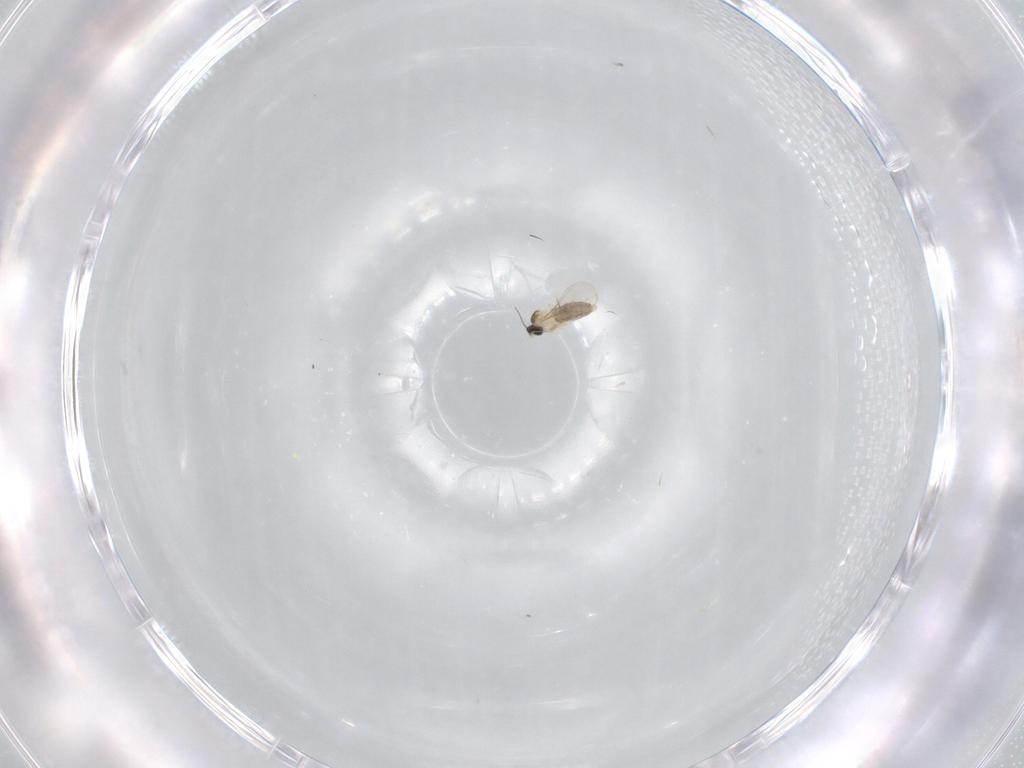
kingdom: Animalia
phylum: Arthropoda
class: Insecta
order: Diptera
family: Cecidomyiidae
